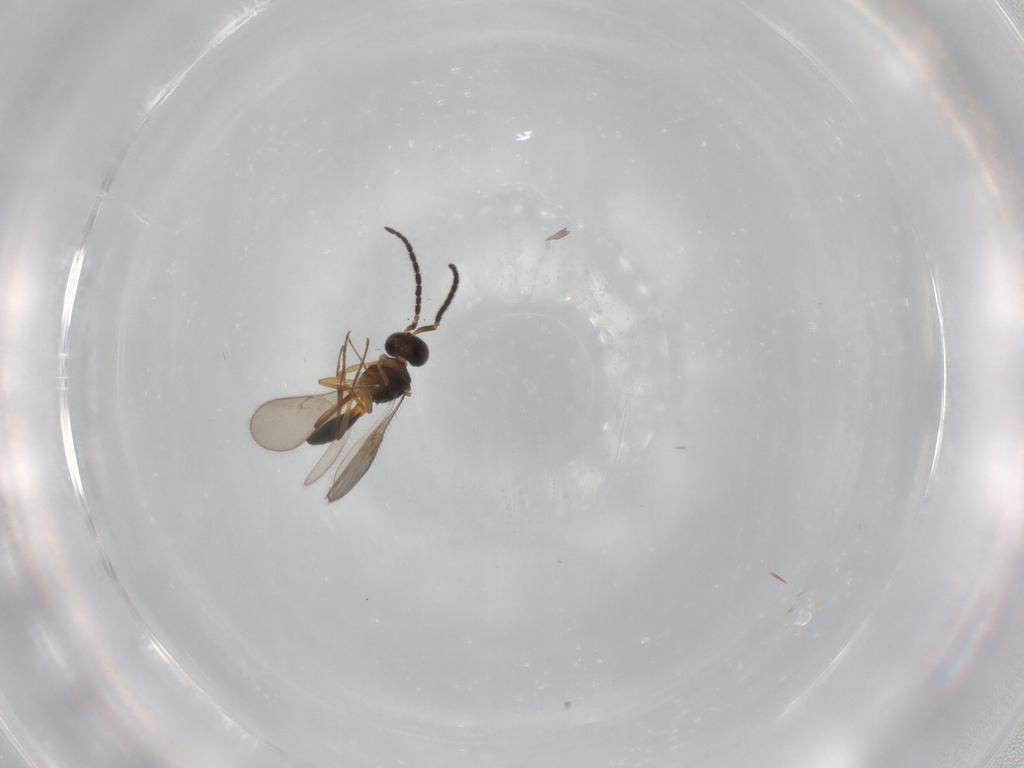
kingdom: Animalia
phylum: Arthropoda
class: Insecta
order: Hymenoptera
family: Scelionidae
